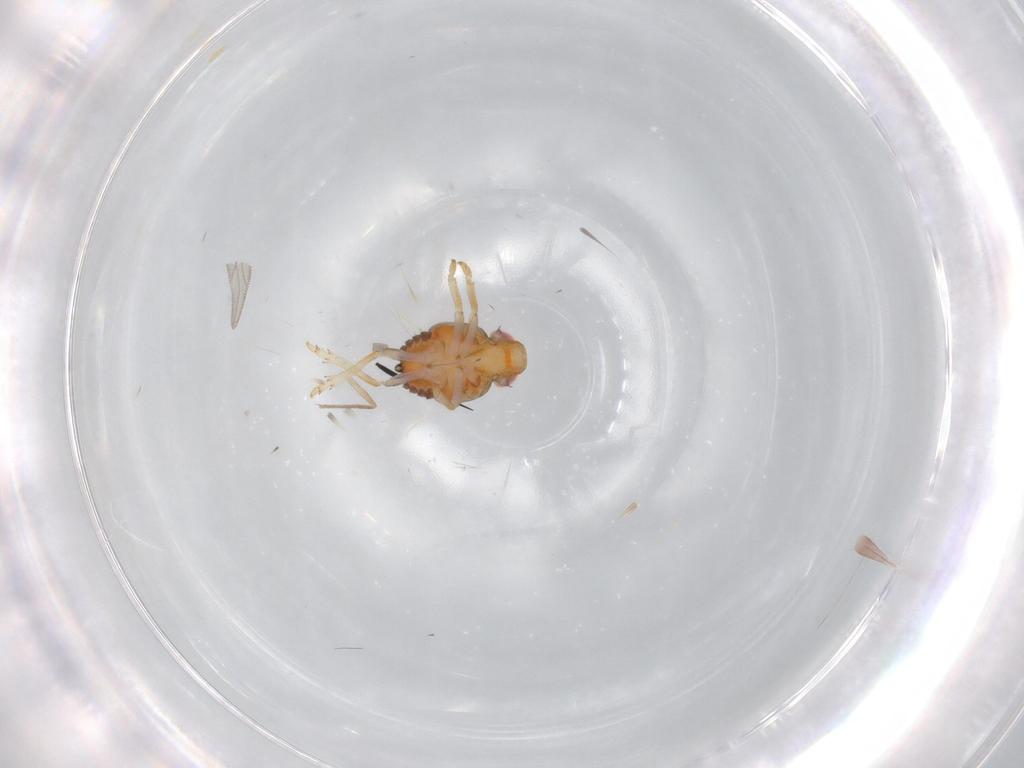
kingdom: Animalia
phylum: Arthropoda
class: Insecta
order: Hemiptera
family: Issidae
